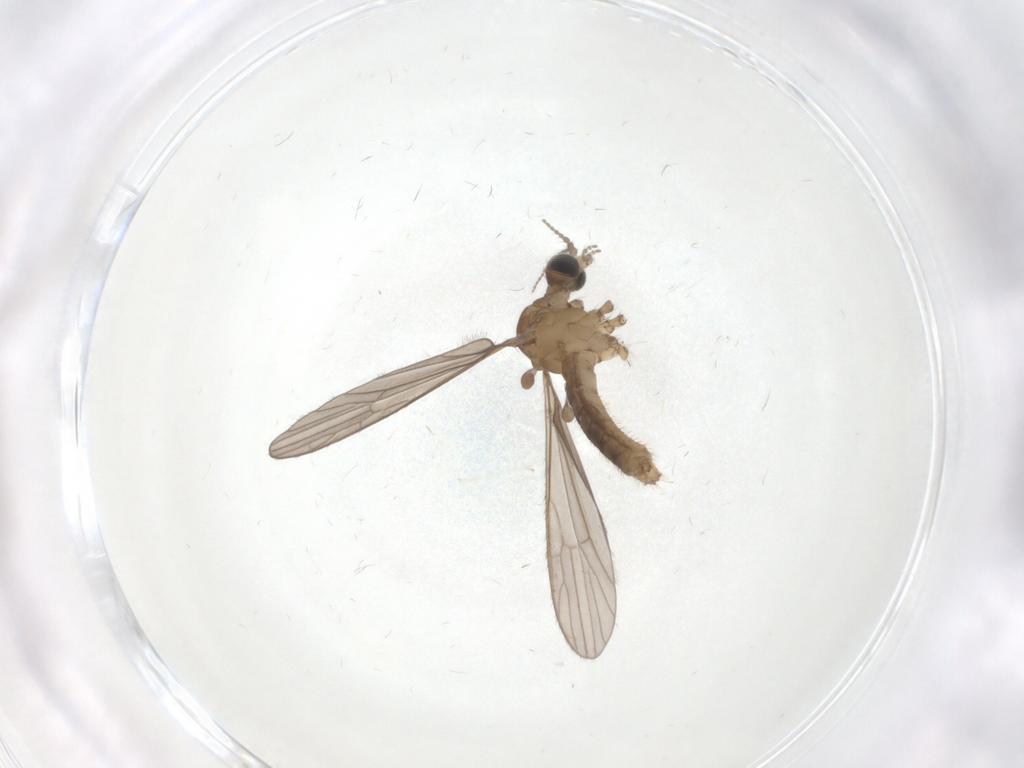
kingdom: Animalia
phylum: Arthropoda
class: Insecta
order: Diptera
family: Limoniidae
